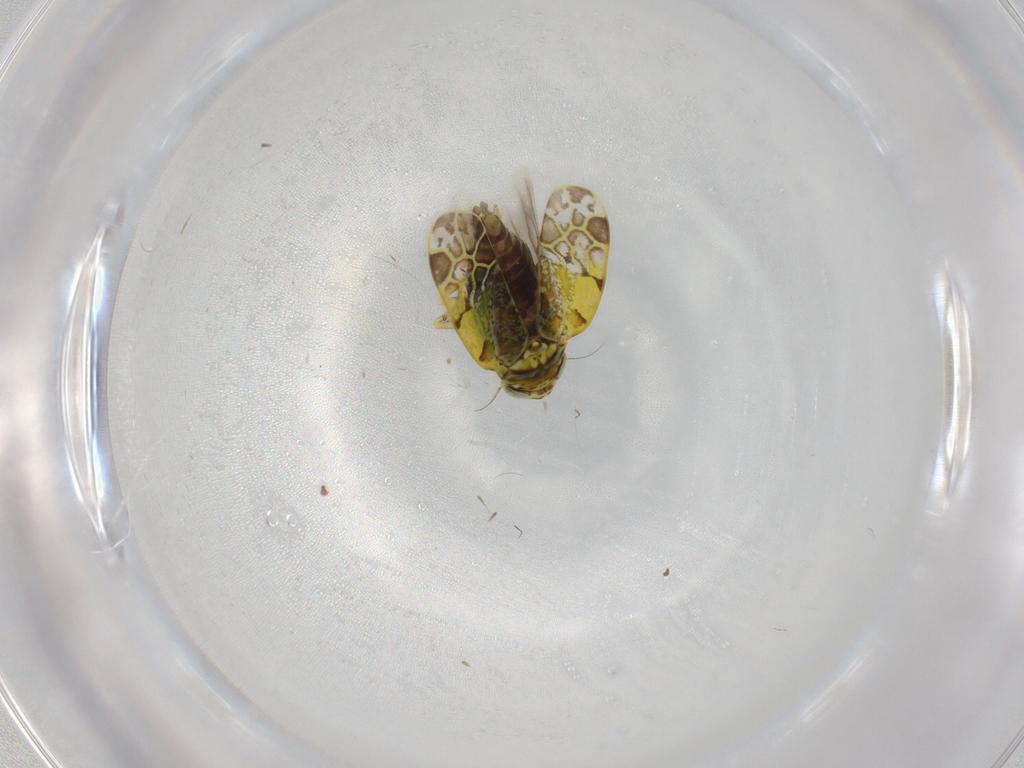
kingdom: Animalia
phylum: Arthropoda
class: Insecta
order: Hemiptera
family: Cicadellidae
